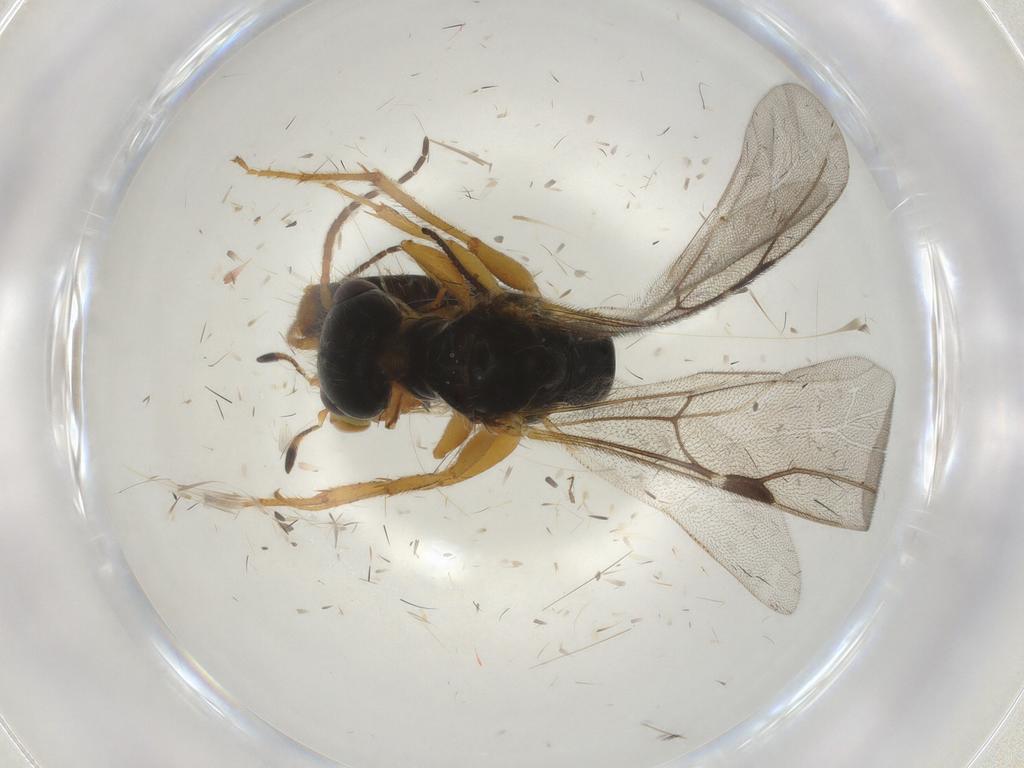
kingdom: Animalia
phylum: Arthropoda
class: Insecta
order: Hymenoptera
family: Bethylidae
